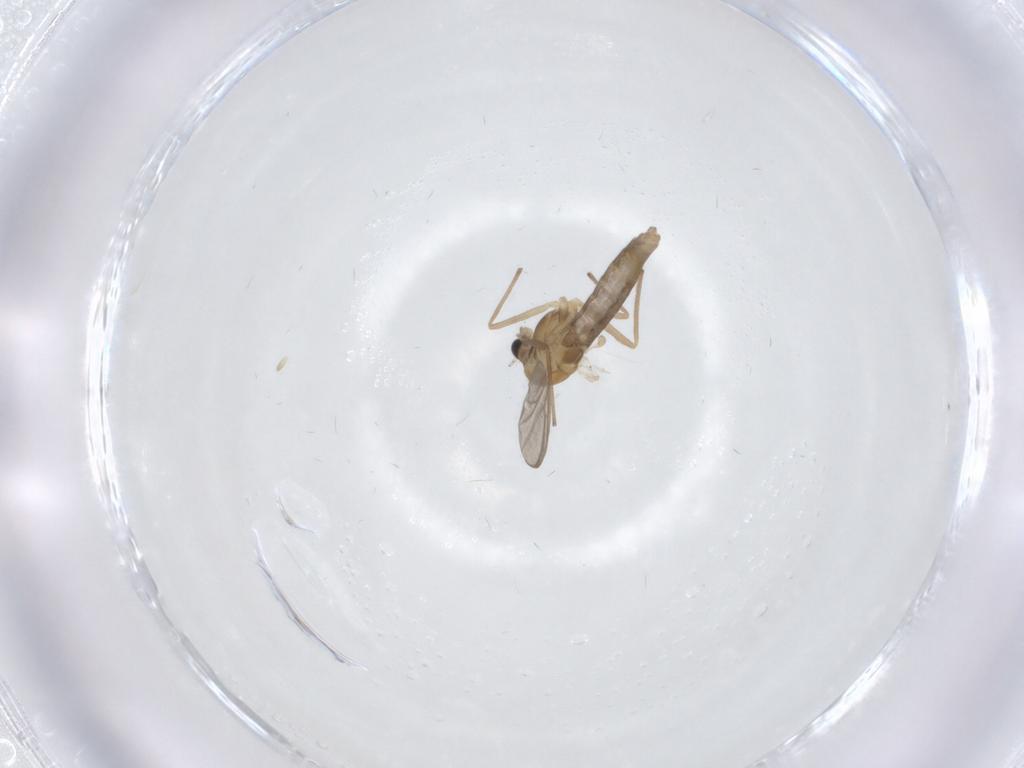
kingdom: Animalia
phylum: Arthropoda
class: Insecta
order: Diptera
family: Chironomidae
